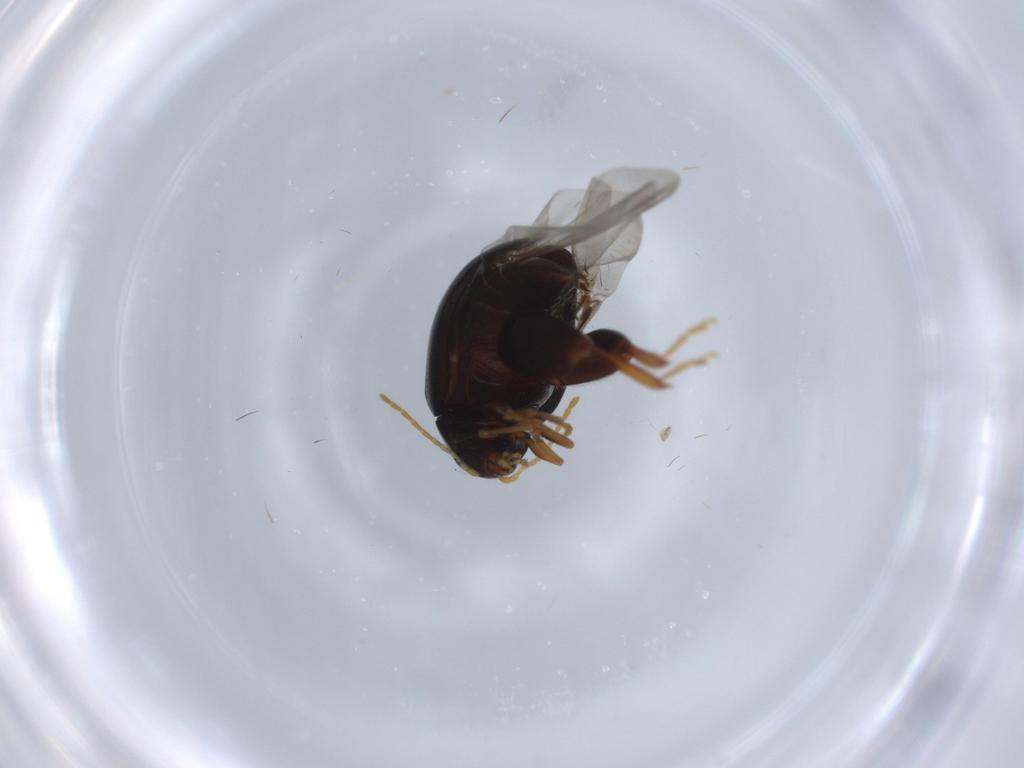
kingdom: Animalia
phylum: Arthropoda
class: Insecta
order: Coleoptera
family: Chrysomelidae
